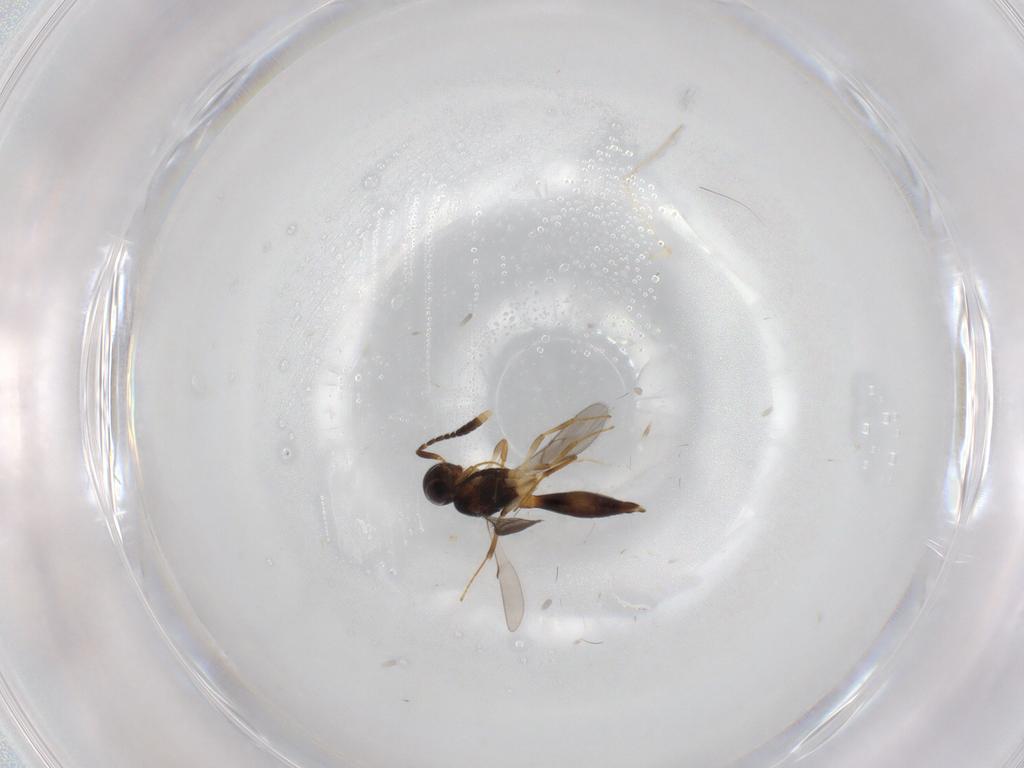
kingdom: Animalia
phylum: Arthropoda
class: Insecta
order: Hymenoptera
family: Scelionidae
